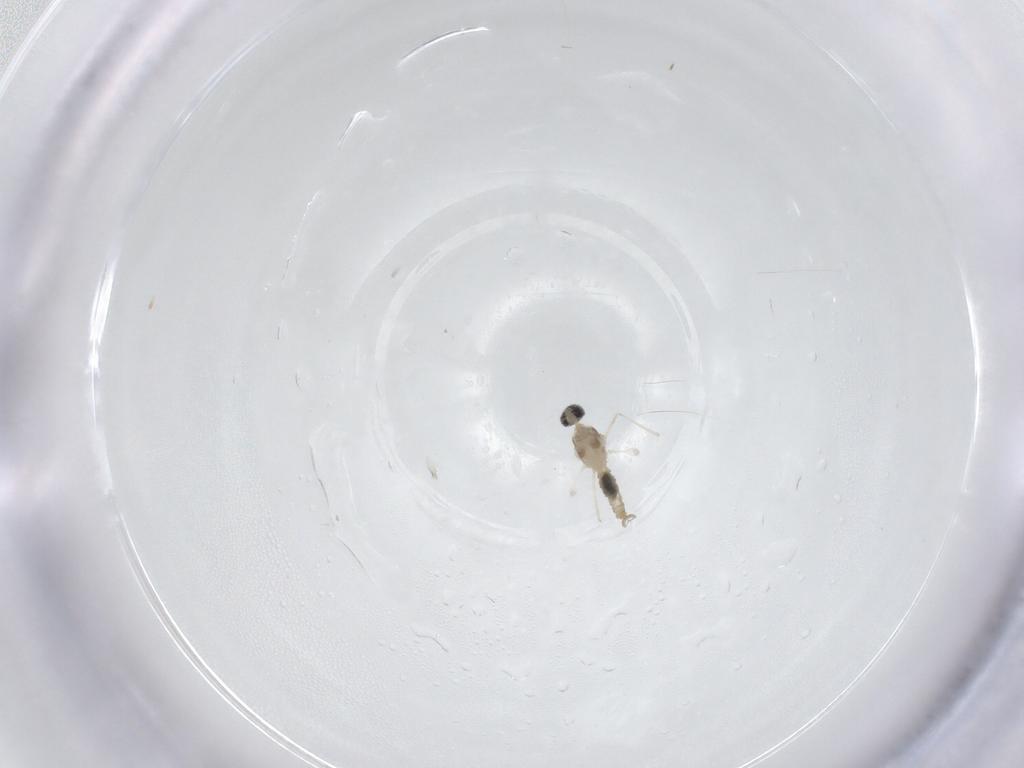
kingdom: Animalia
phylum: Arthropoda
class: Insecta
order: Diptera
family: Cecidomyiidae
